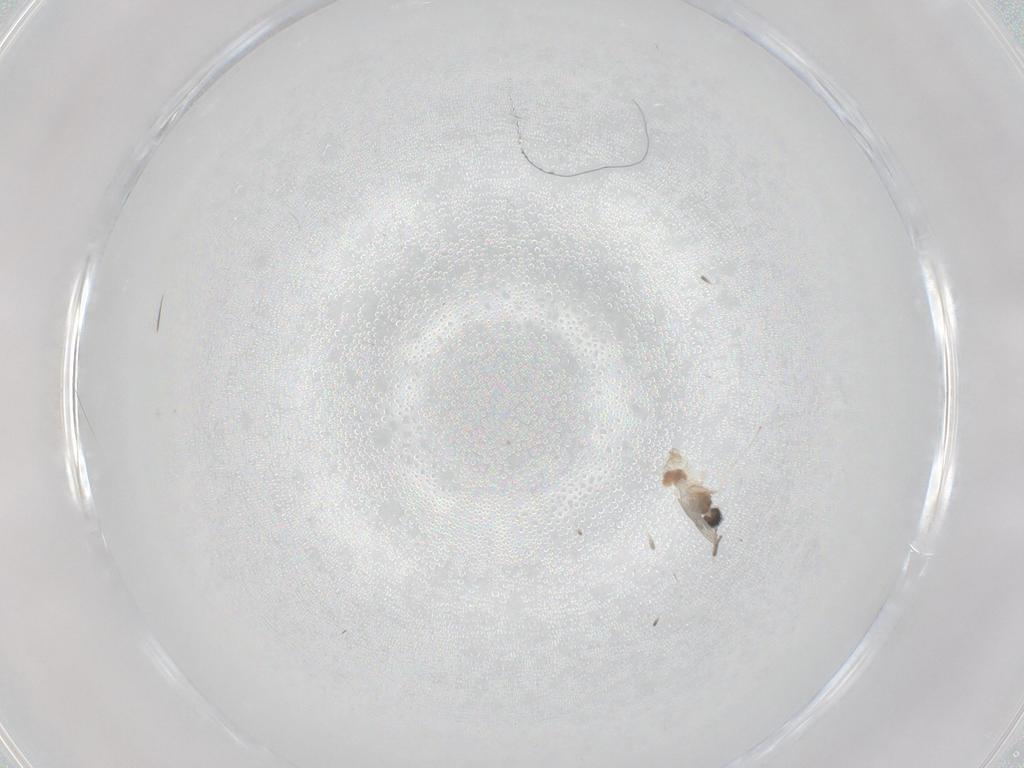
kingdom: Animalia
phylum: Arthropoda
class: Insecta
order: Diptera
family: Cecidomyiidae
